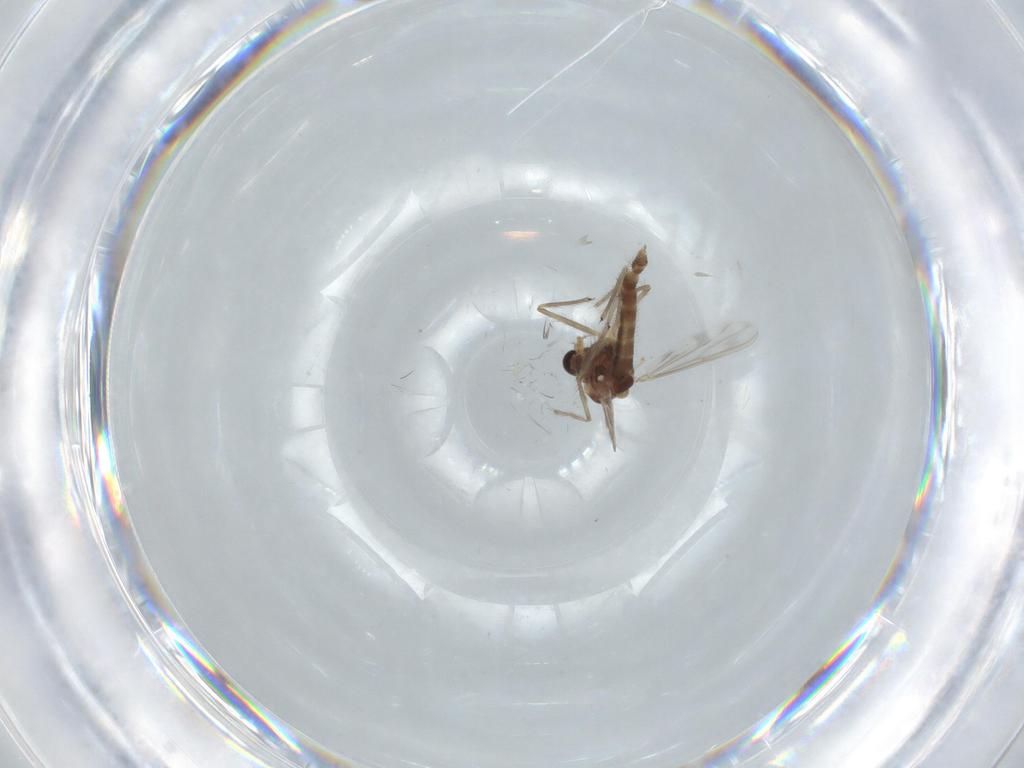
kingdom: Animalia
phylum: Arthropoda
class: Insecta
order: Diptera
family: Chironomidae
